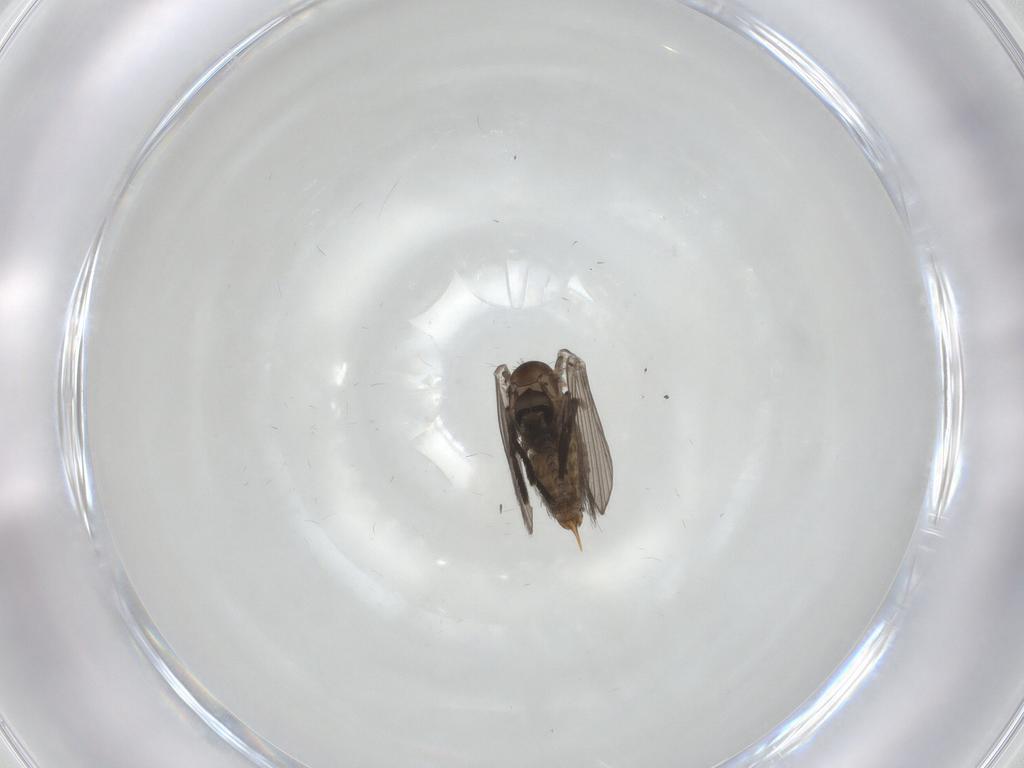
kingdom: Animalia
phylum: Arthropoda
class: Insecta
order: Diptera
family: Psychodidae
